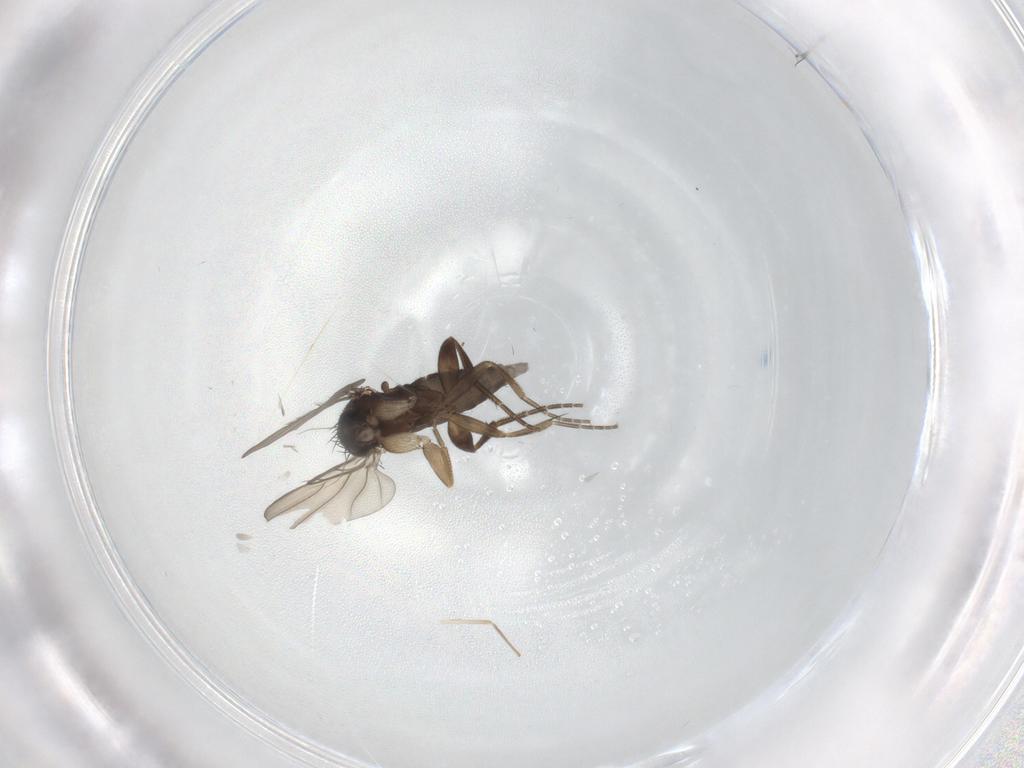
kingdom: Animalia
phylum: Arthropoda
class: Insecta
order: Diptera
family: Phoridae
